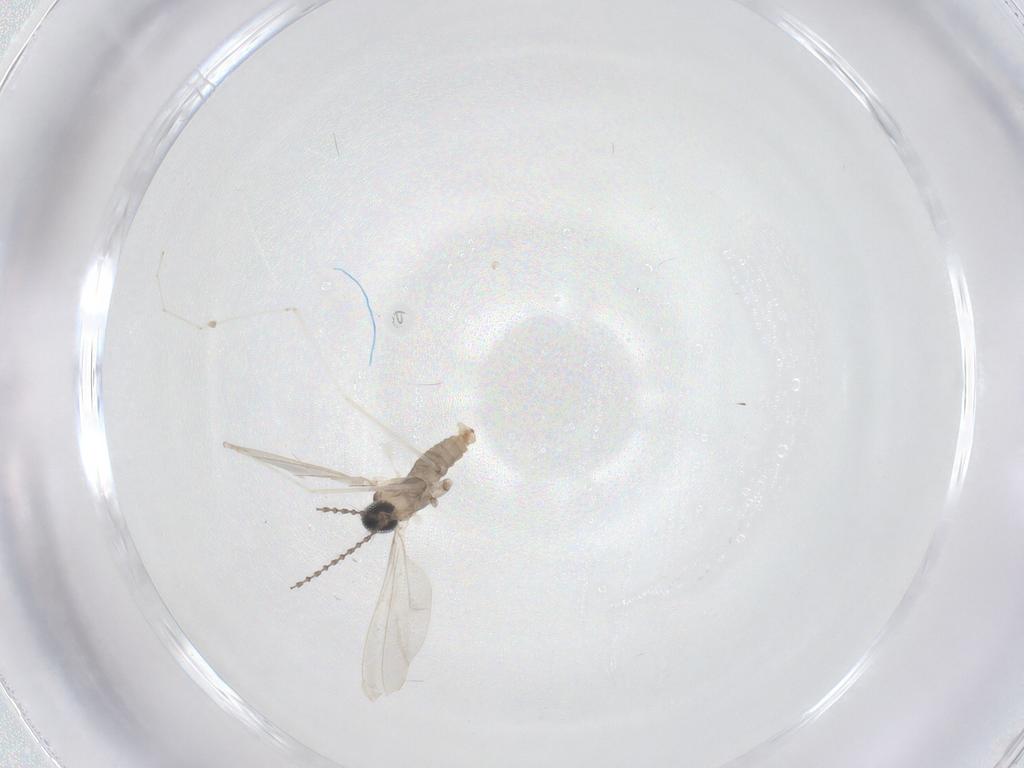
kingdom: Animalia
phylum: Arthropoda
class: Insecta
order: Diptera
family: Cecidomyiidae
